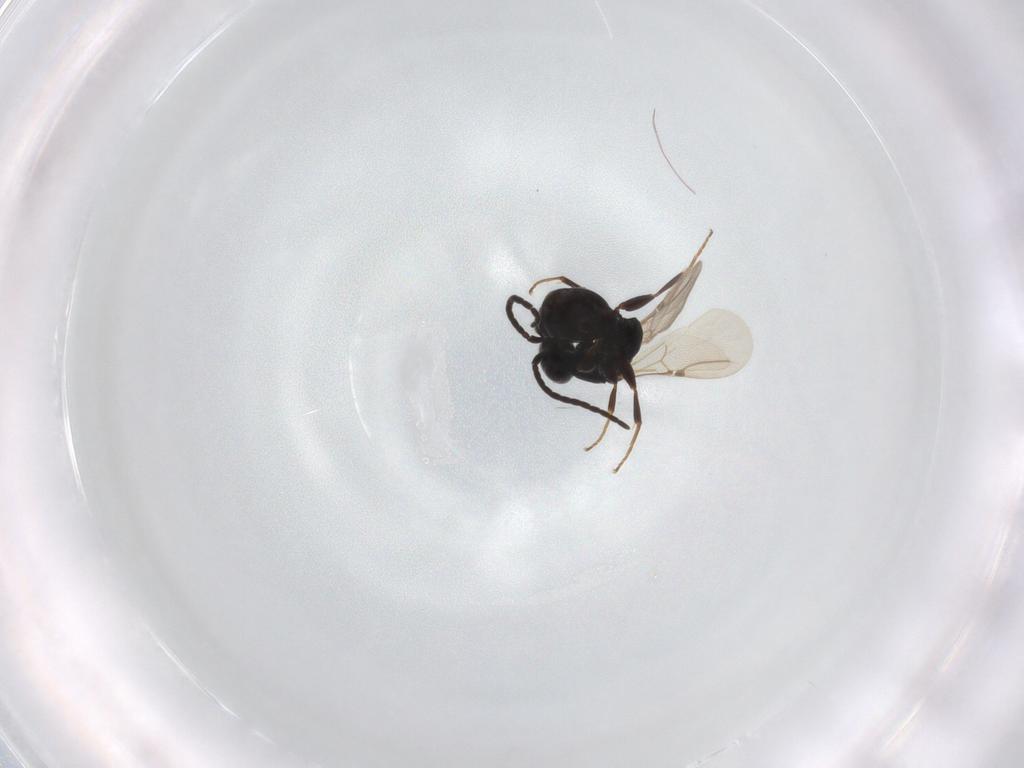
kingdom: Animalia
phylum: Arthropoda
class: Insecta
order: Hymenoptera
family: Bethylidae
